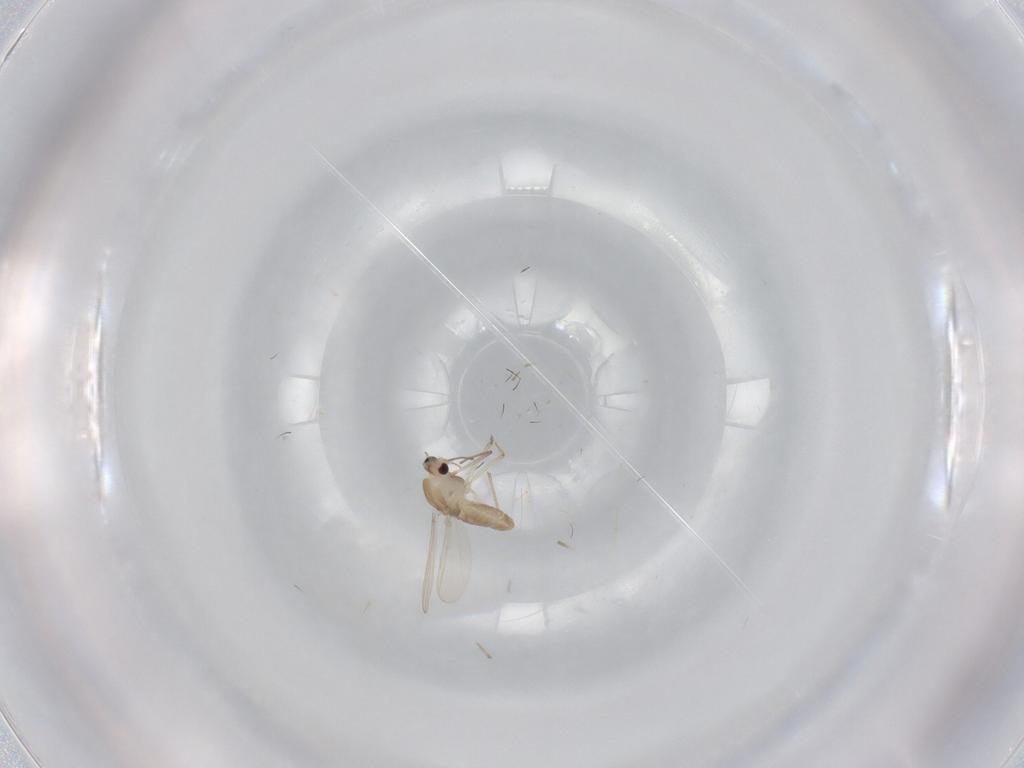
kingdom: Animalia
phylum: Arthropoda
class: Insecta
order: Diptera
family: Chironomidae
